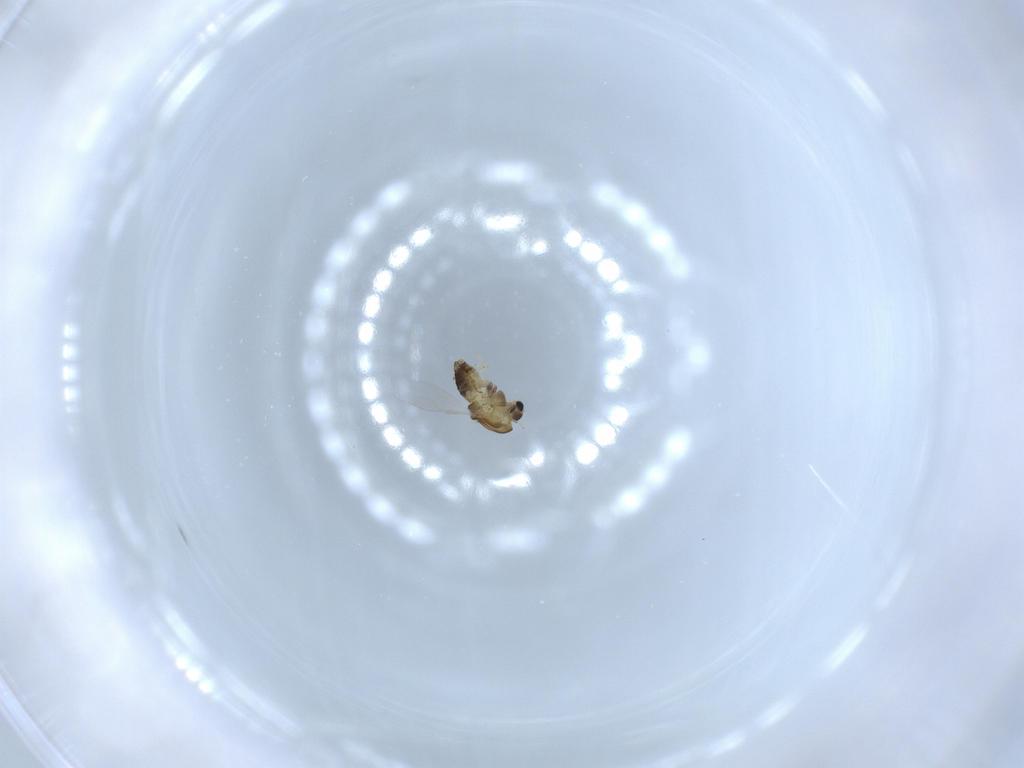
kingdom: Animalia
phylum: Arthropoda
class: Insecta
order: Diptera
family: Chironomidae
